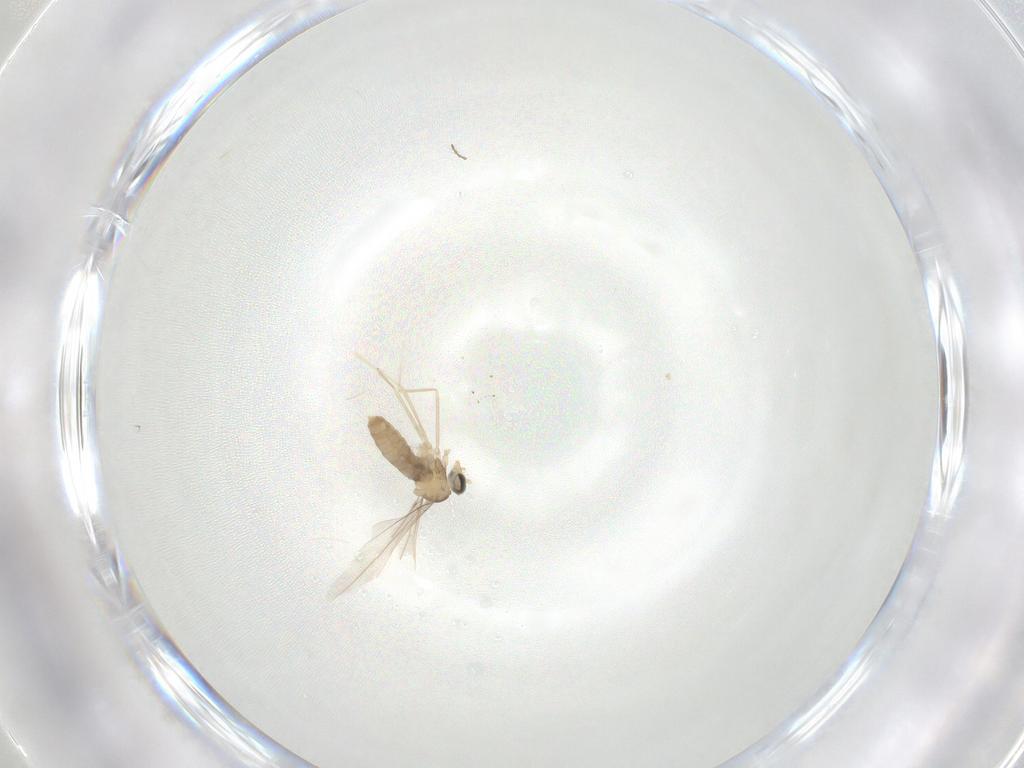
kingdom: Animalia
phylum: Arthropoda
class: Insecta
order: Diptera
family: Cecidomyiidae
